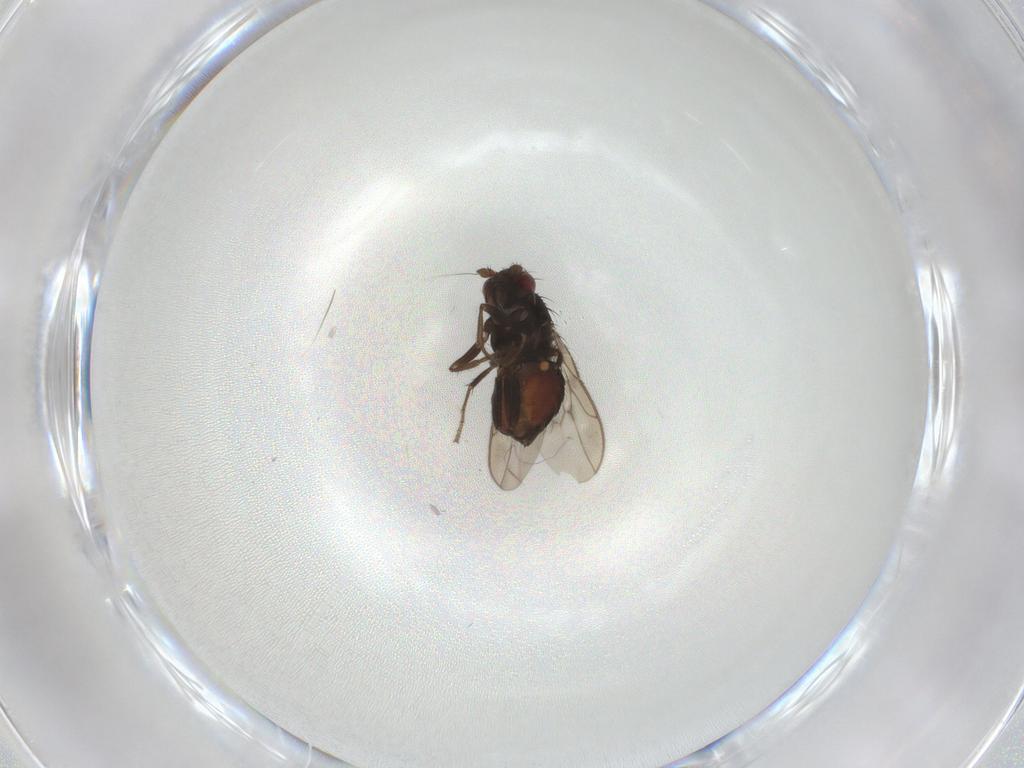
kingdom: Animalia
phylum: Arthropoda
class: Insecta
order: Diptera
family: Sphaeroceridae
